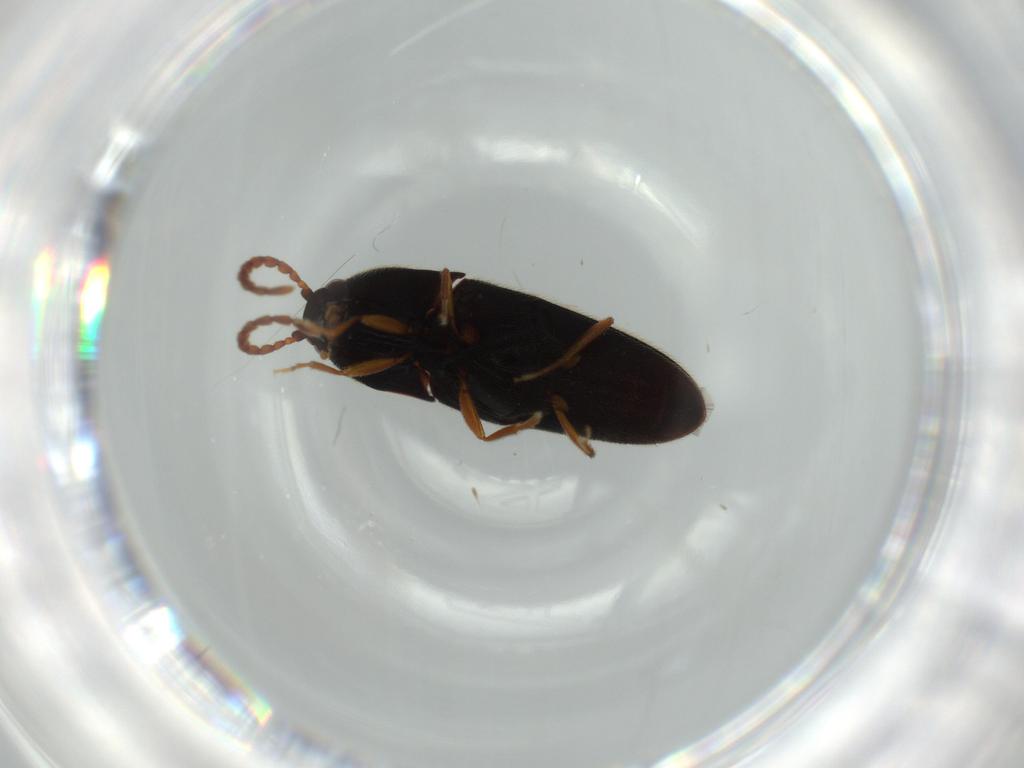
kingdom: Animalia
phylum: Arthropoda
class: Insecta
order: Coleoptera
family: Elateridae
